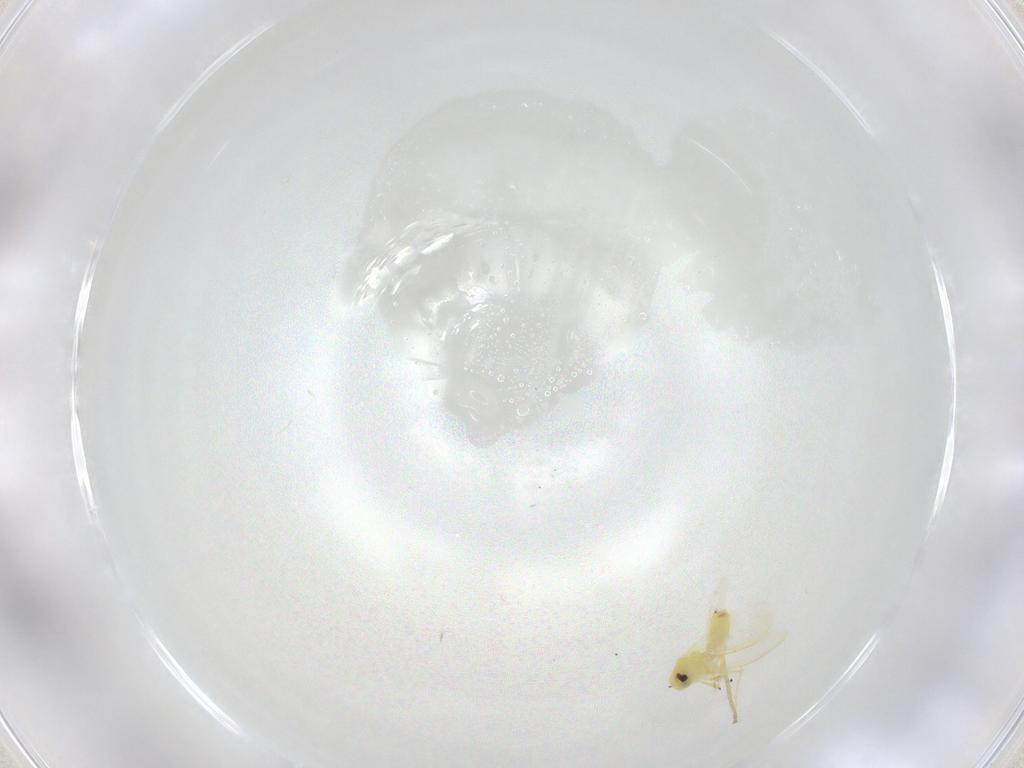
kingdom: Animalia
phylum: Arthropoda
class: Insecta
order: Hemiptera
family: Aleyrodidae
